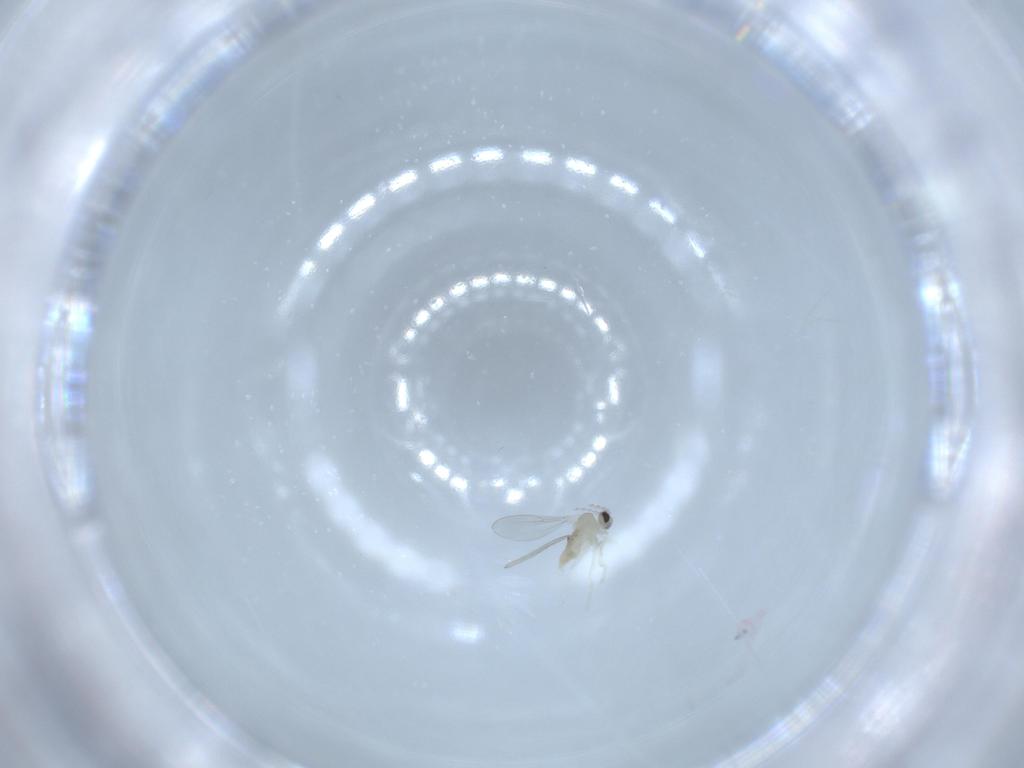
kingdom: Animalia
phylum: Arthropoda
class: Insecta
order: Diptera
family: Cecidomyiidae
